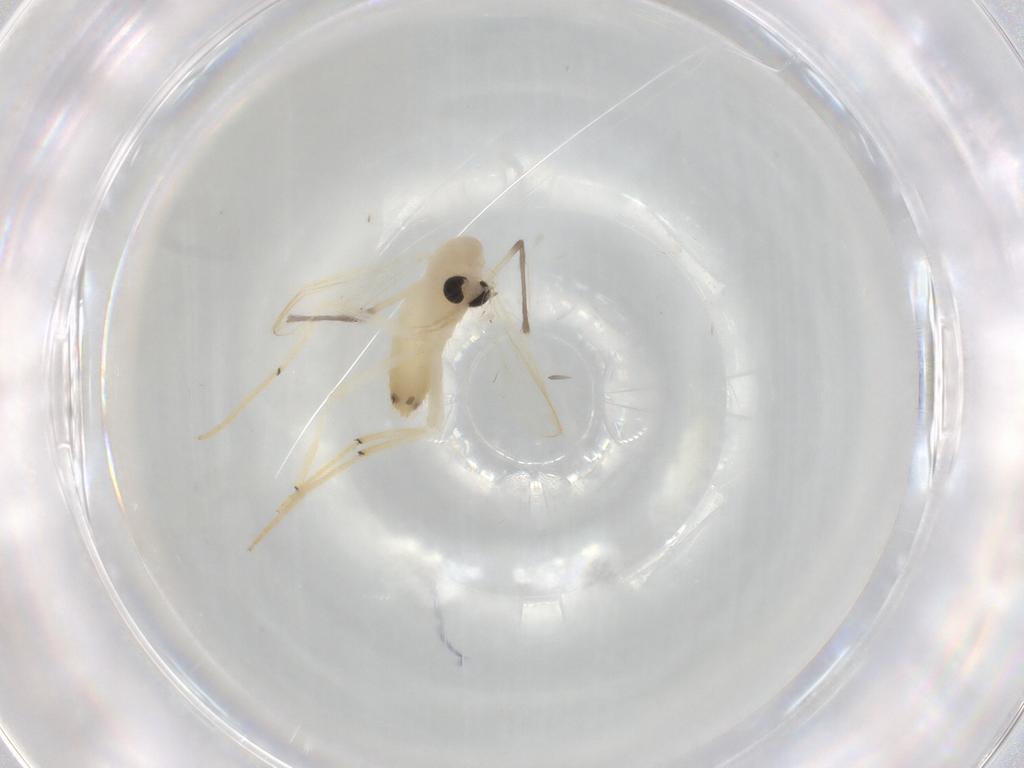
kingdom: Animalia
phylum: Arthropoda
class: Insecta
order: Diptera
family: Chironomidae
